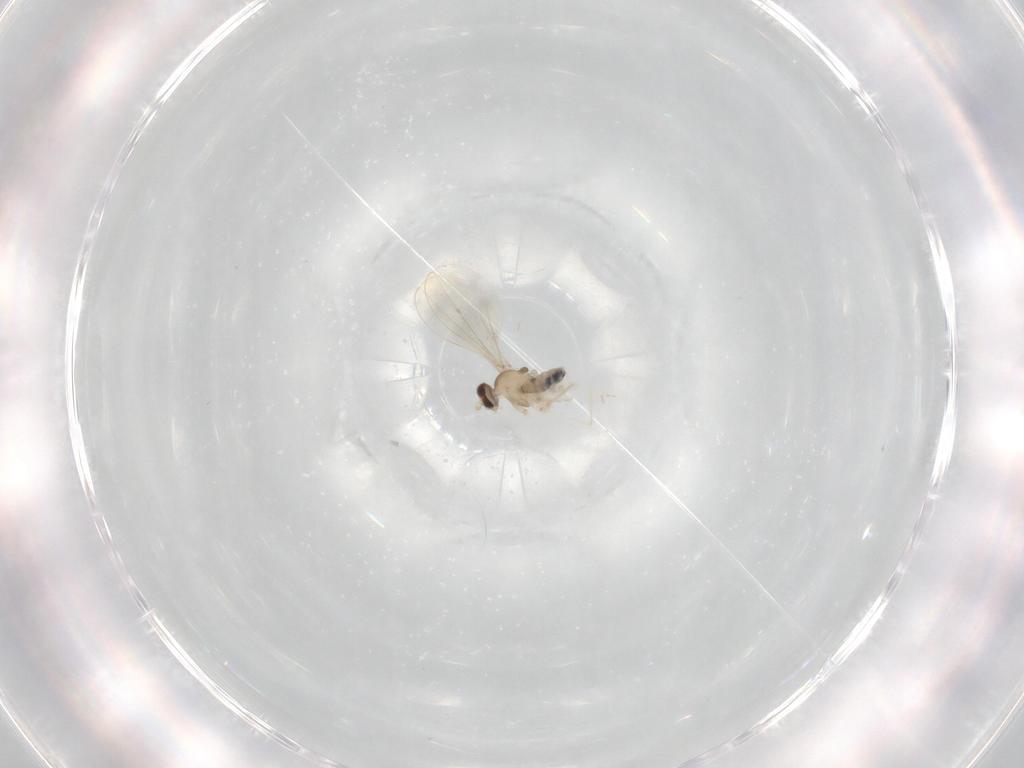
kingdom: Animalia
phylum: Arthropoda
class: Insecta
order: Diptera
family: Cecidomyiidae
